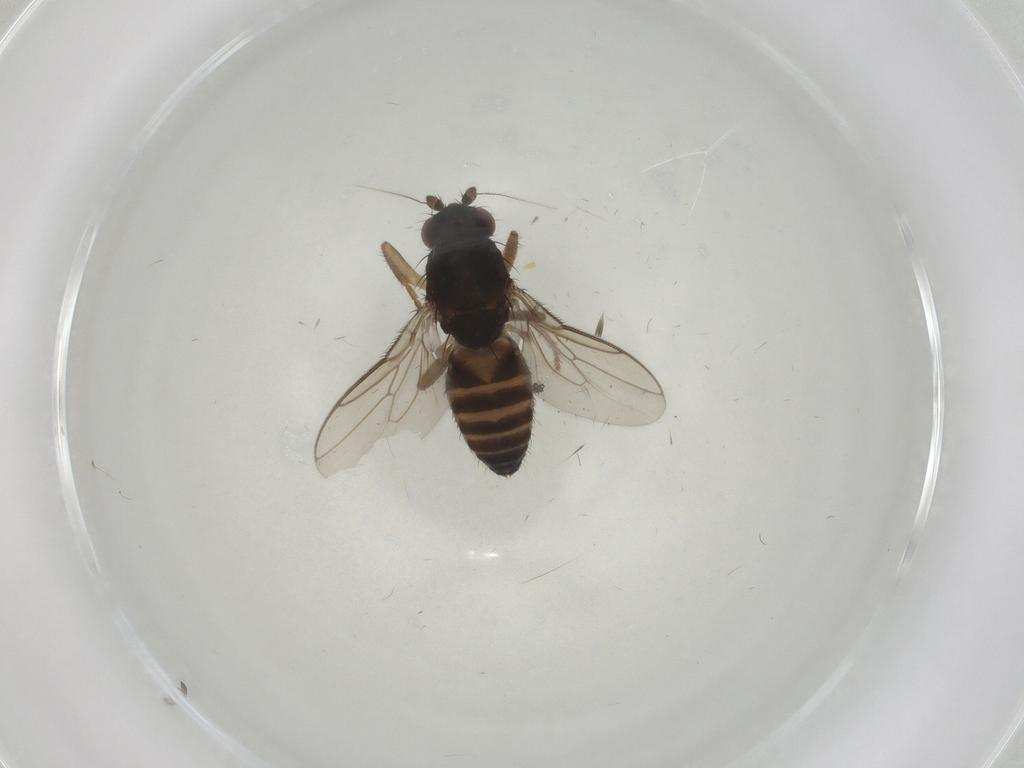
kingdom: Animalia
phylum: Arthropoda
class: Insecta
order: Diptera
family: Sphaeroceridae
